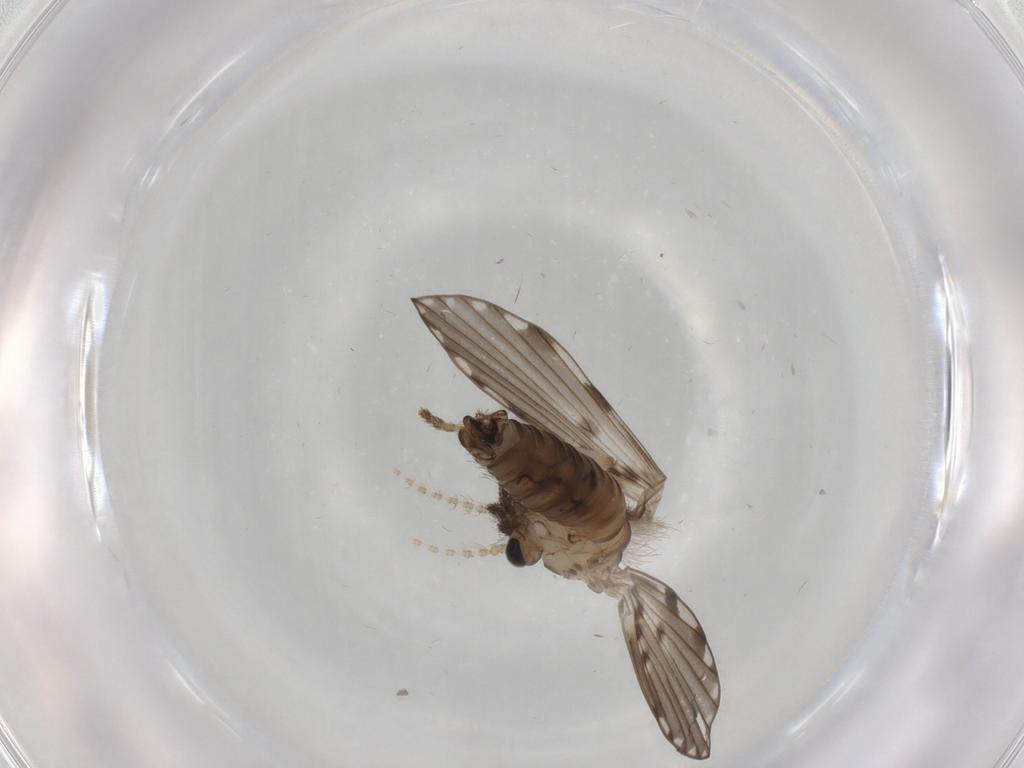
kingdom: Animalia
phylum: Arthropoda
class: Insecta
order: Diptera
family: Psychodidae
